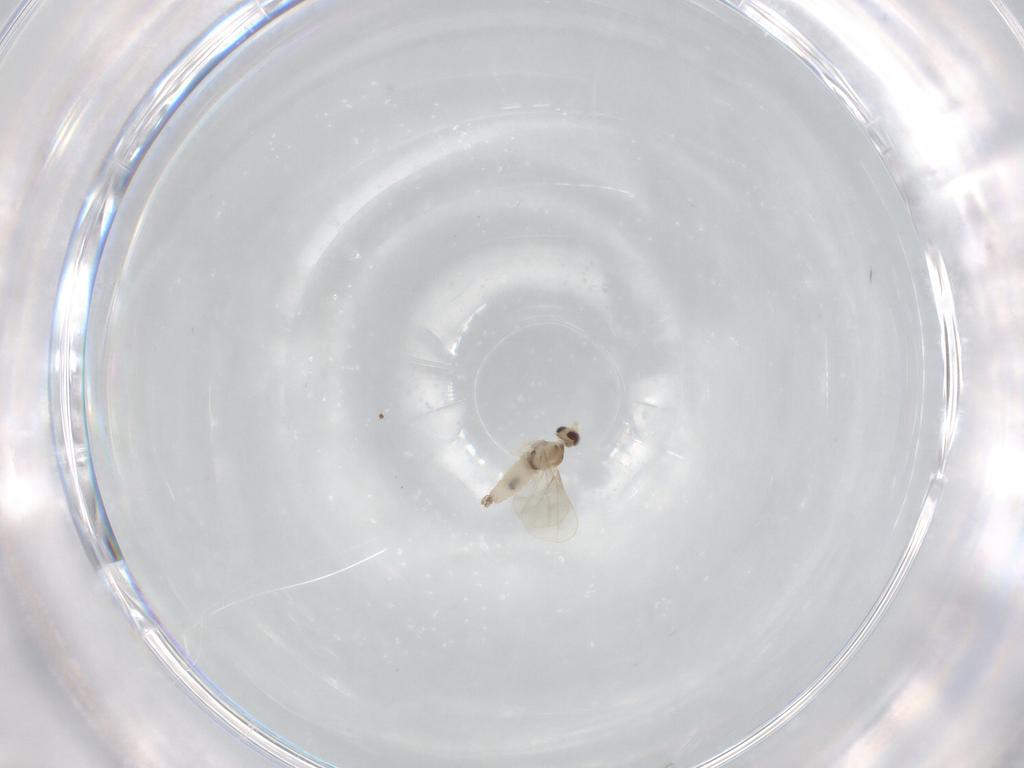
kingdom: Animalia
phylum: Arthropoda
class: Insecta
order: Diptera
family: Cecidomyiidae
